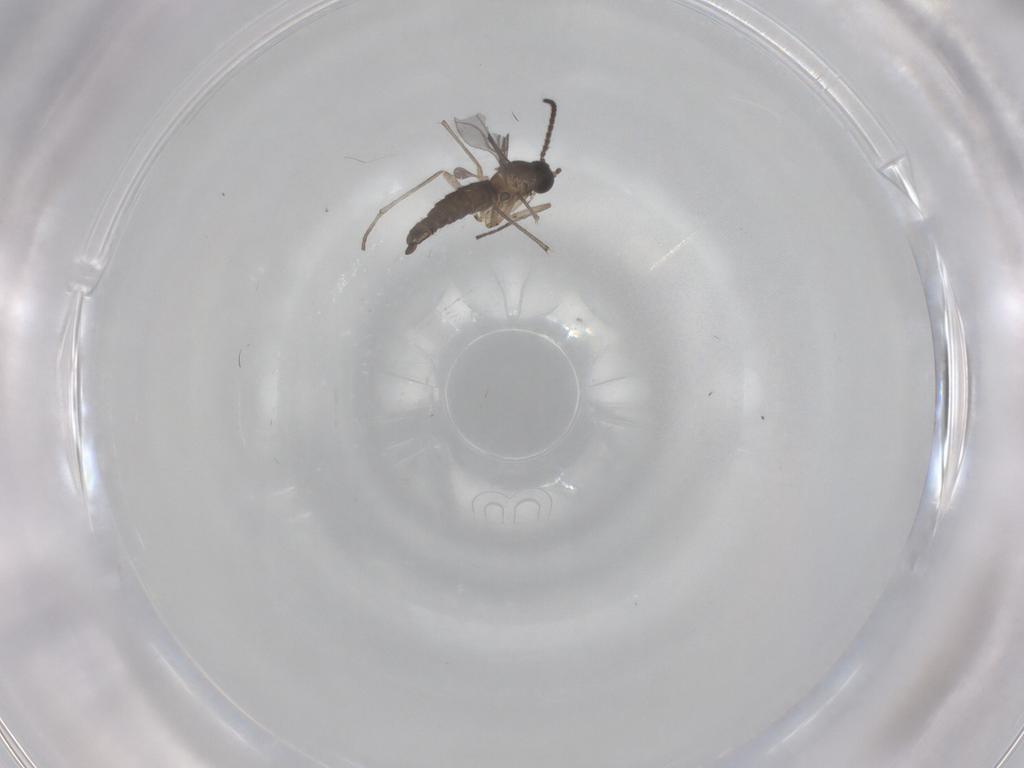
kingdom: Animalia
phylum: Arthropoda
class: Insecta
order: Diptera
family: Sciaridae
